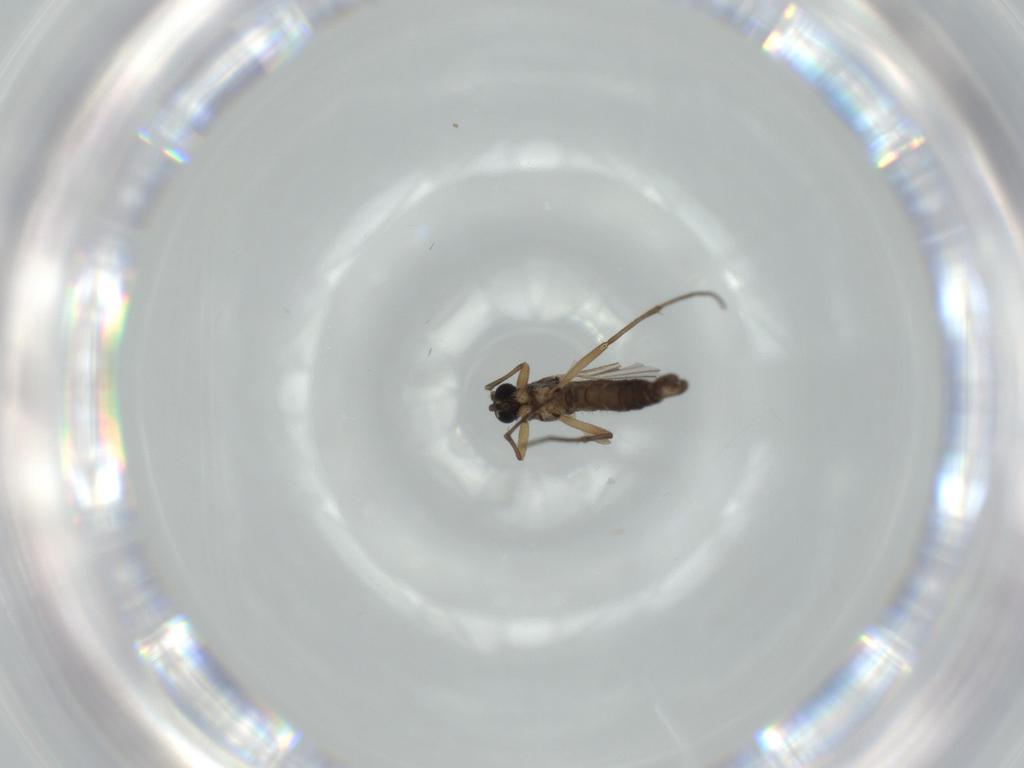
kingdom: Animalia
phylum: Arthropoda
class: Insecta
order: Diptera
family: Sciaridae
